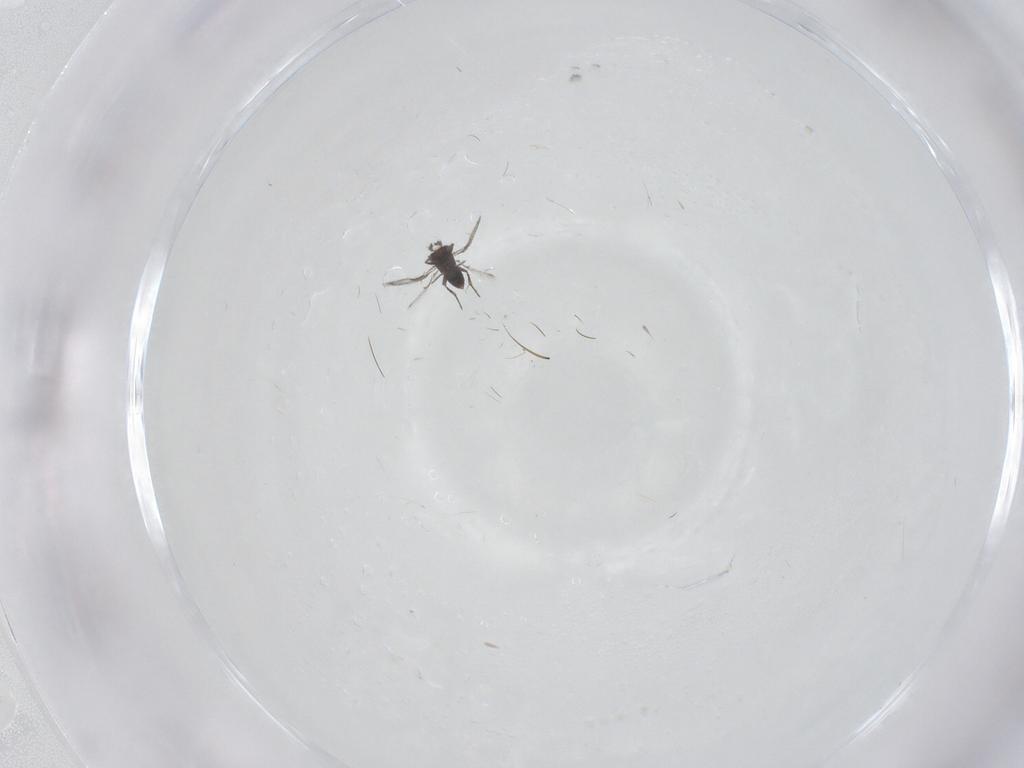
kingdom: Animalia
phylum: Arthropoda
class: Insecta
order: Hymenoptera
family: Trichogrammatidae
